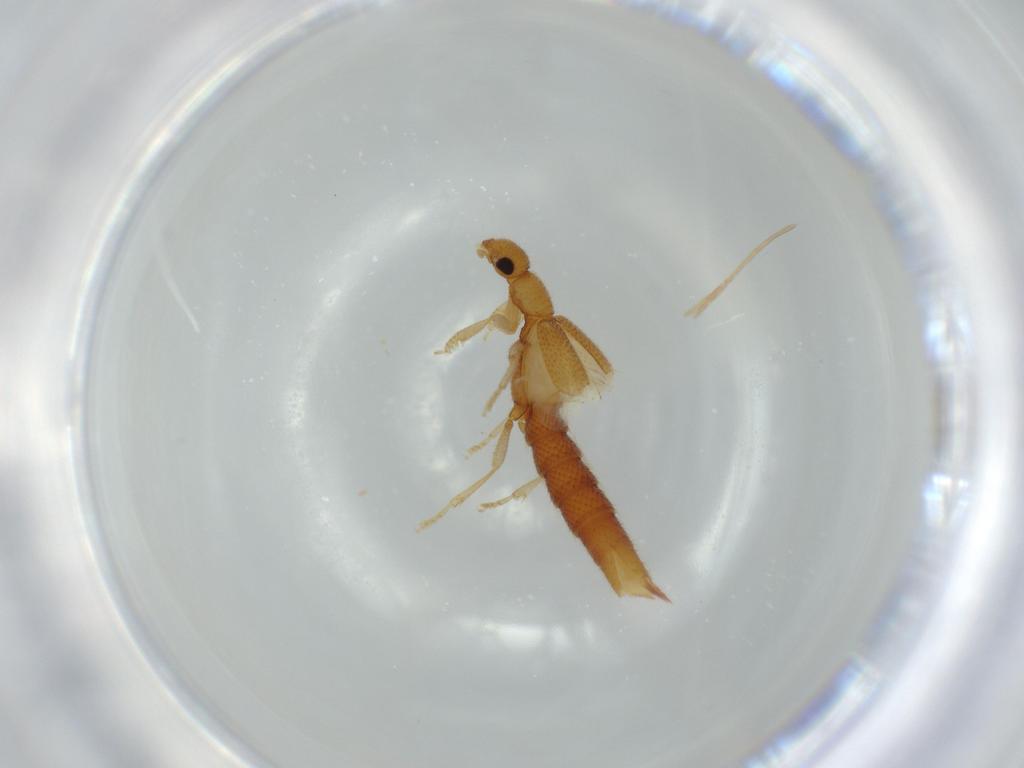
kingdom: Animalia
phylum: Arthropoda
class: Insecta
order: Coleoptera
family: Staphylinidae
